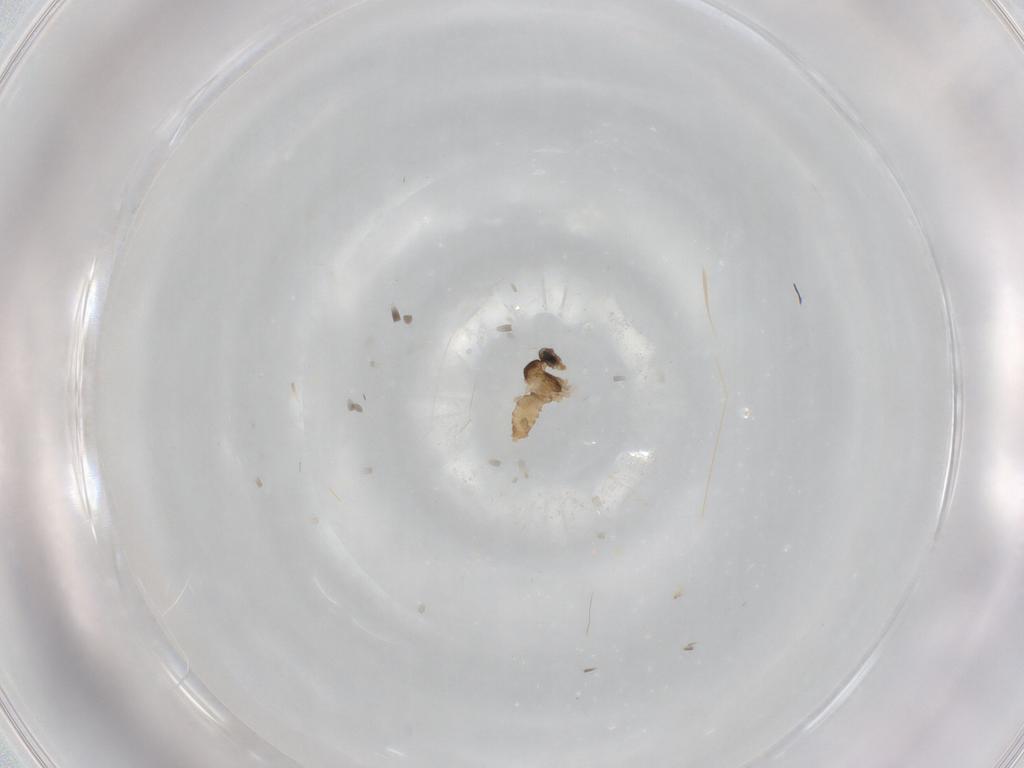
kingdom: Animalia
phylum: Arthropoda
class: Insecta
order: Diptera
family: Cecidomyiidae
